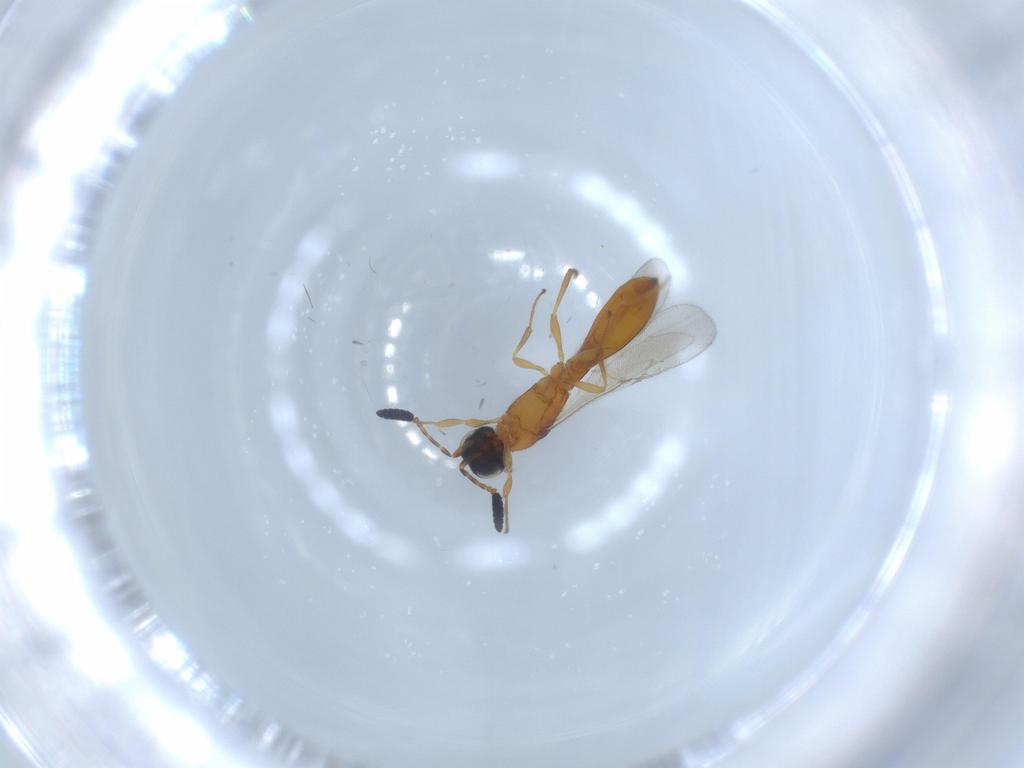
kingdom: Animalia
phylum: Arthropoda
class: Insecta
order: Hymenoptera
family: Scelionidae
